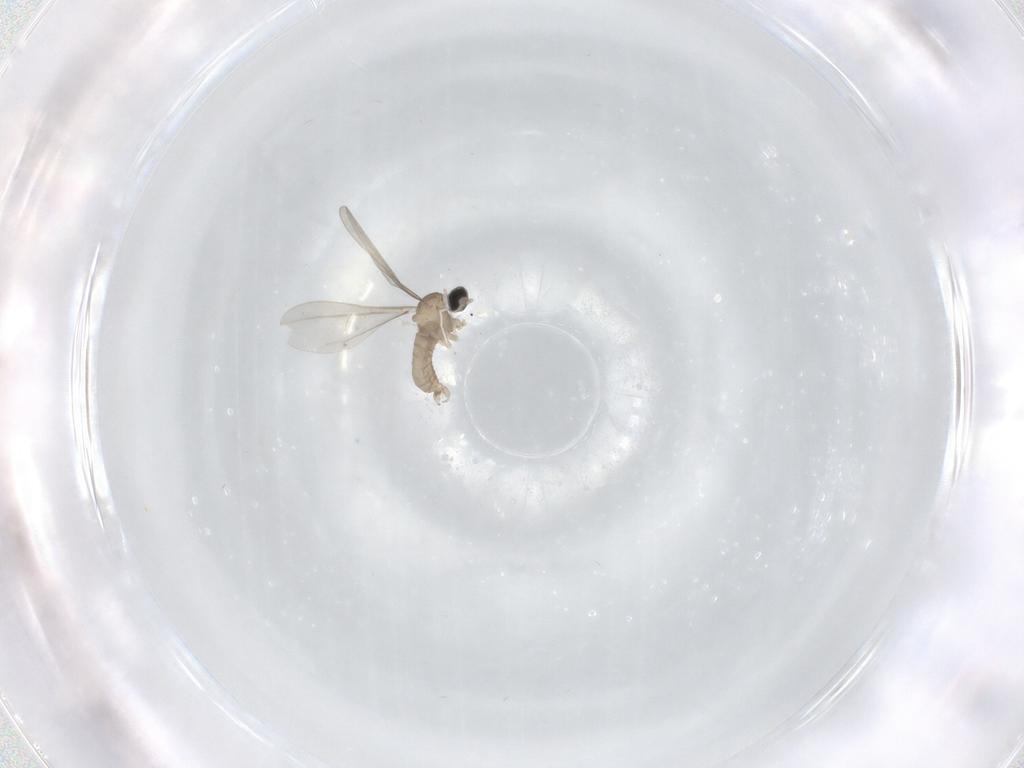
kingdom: Animalia
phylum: Arthropoda
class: Insecta
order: Diptera
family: Cecidomyiidae
